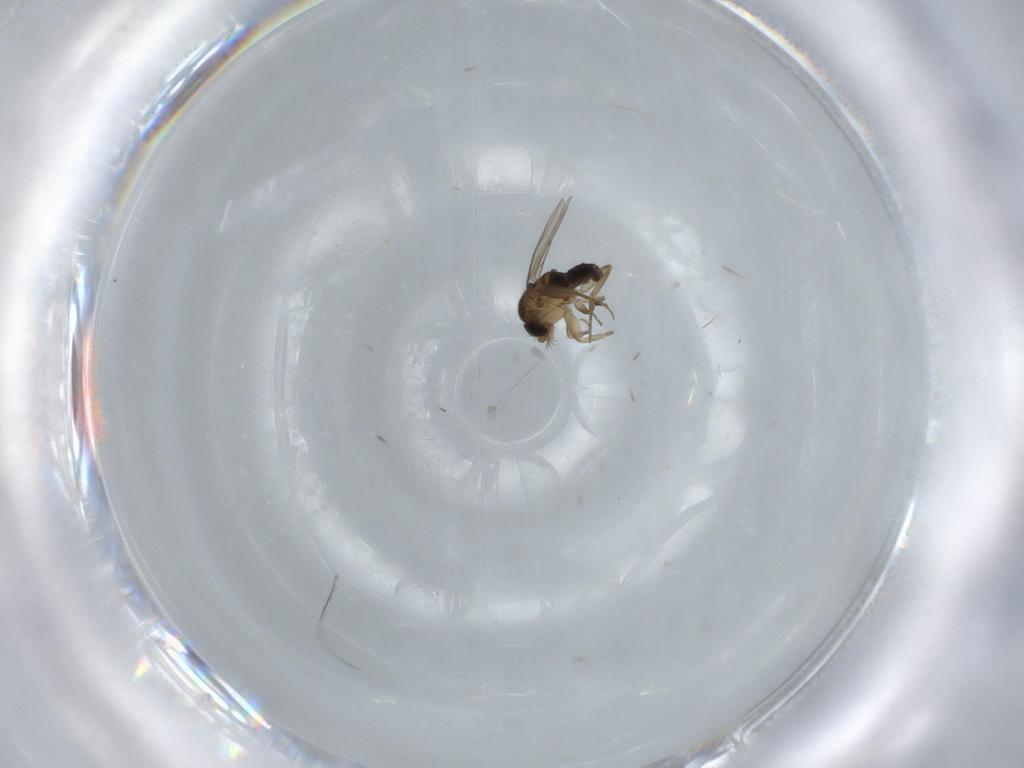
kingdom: Animalia
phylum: Arthropoda
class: Insecta
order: Diptera
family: Phoridae
